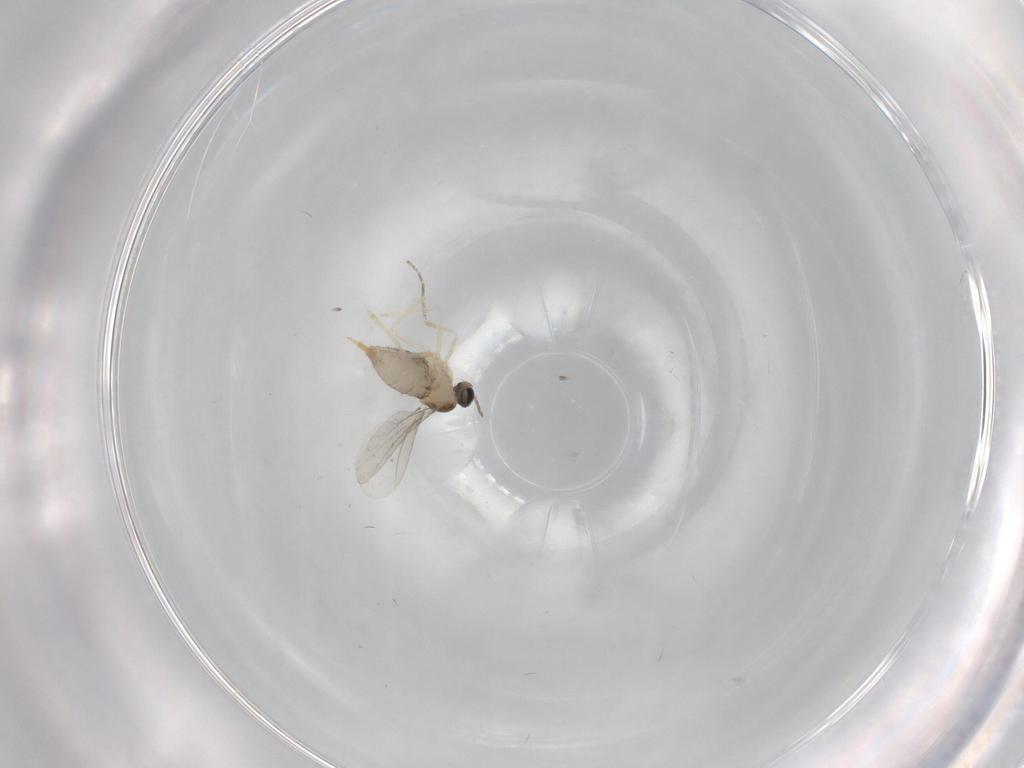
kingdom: Animalia
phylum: Arthropoda
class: Insecta
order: Diptera
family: Cecidomyiidae
